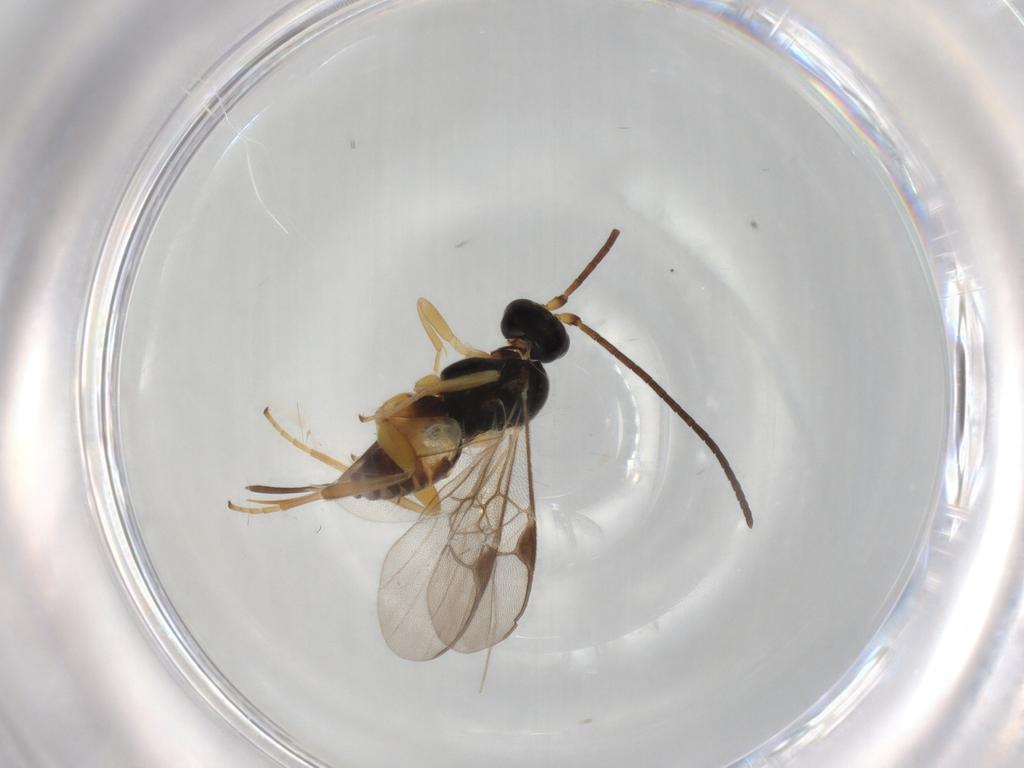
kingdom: Animalia
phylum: Arthropoda
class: Insecta
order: Hymenoptera
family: Braconidae
